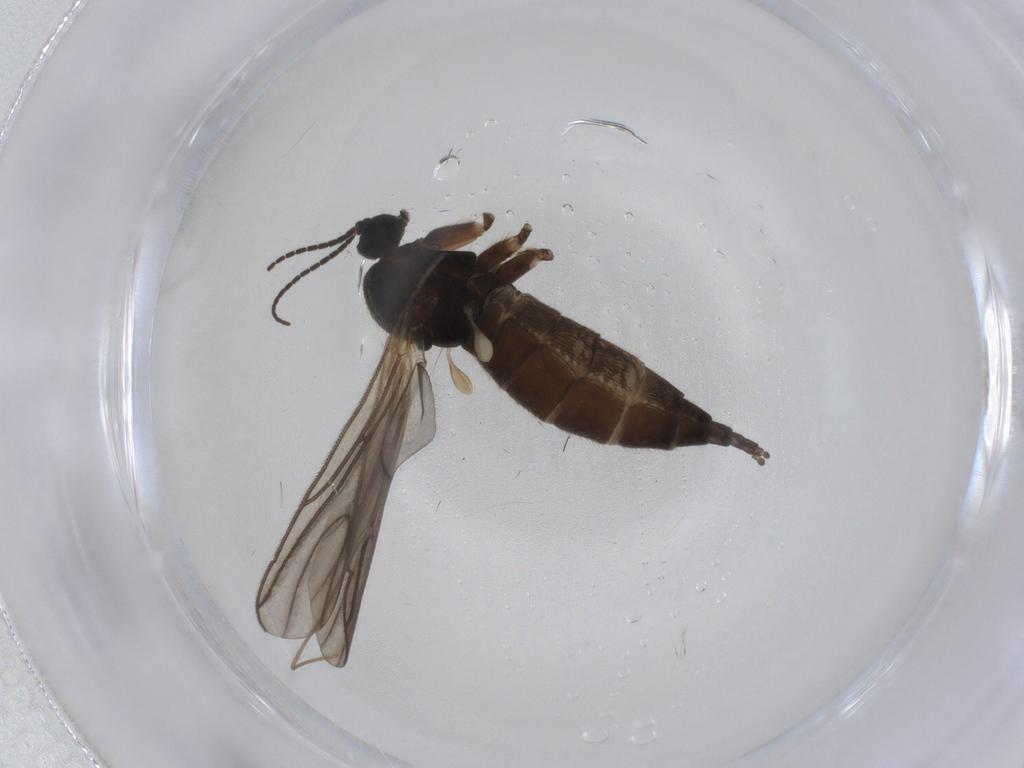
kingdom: Animalia
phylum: Arthropoda
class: Insecta
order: Diptera
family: Sciaridae
